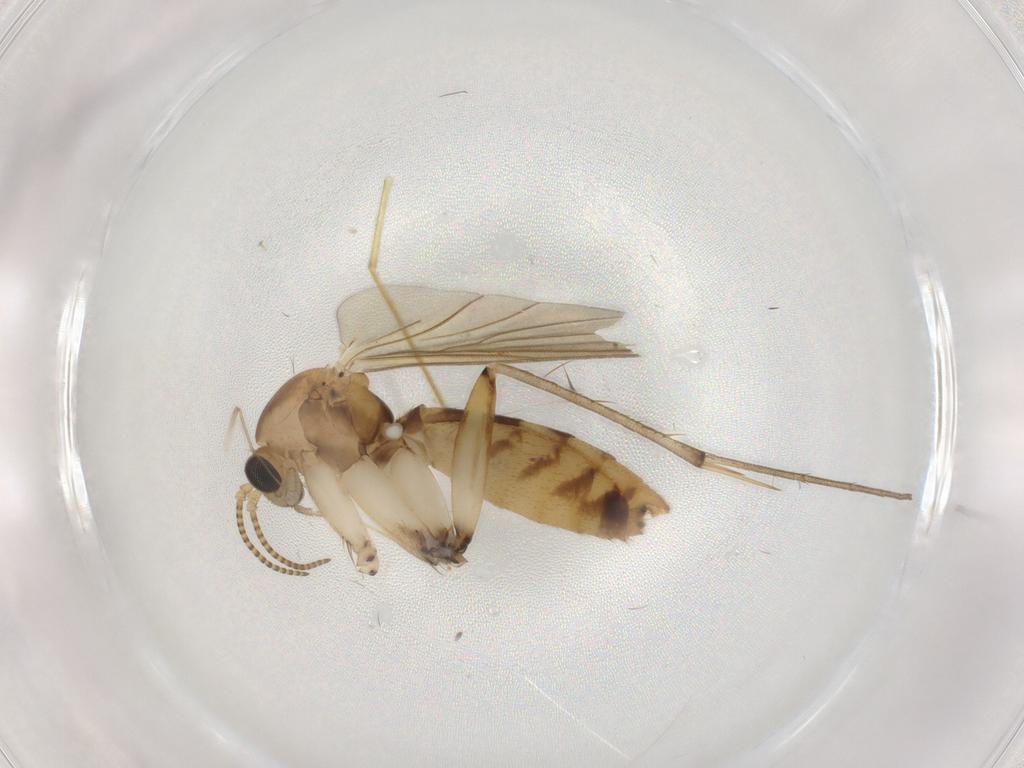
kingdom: Animalia
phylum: Arthropoda
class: Insecta
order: Diptera
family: Mycetophilidae
